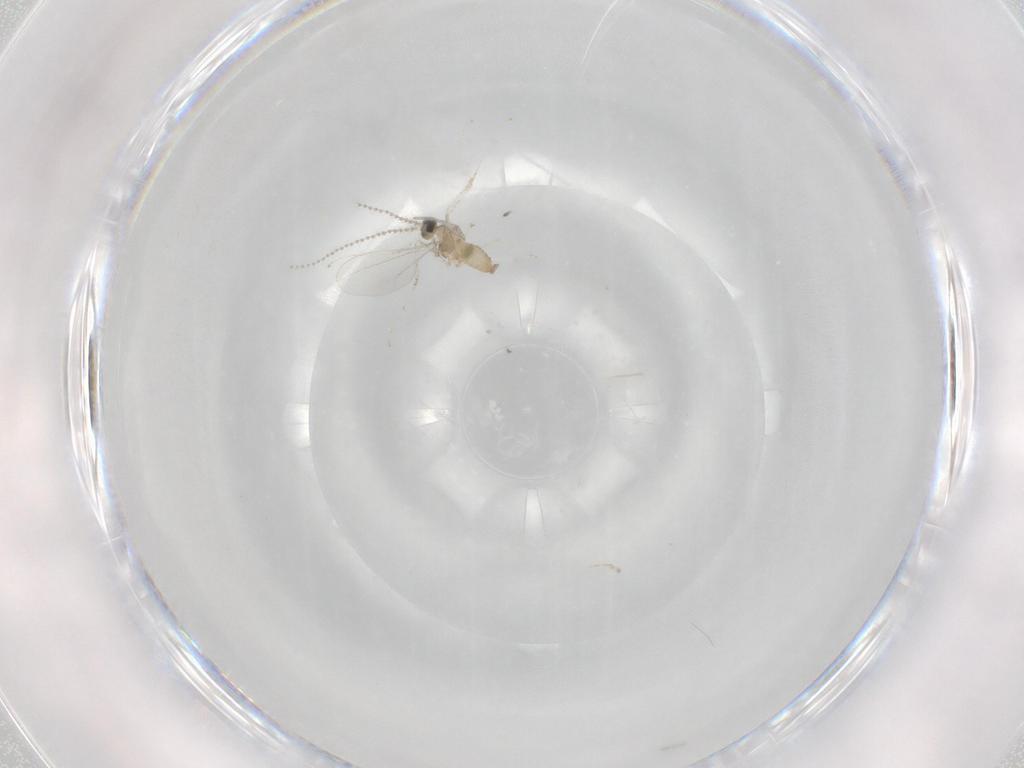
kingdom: Animalia
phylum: Arthropoda
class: Insecta
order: Diptera
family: Cecidomyiidae
